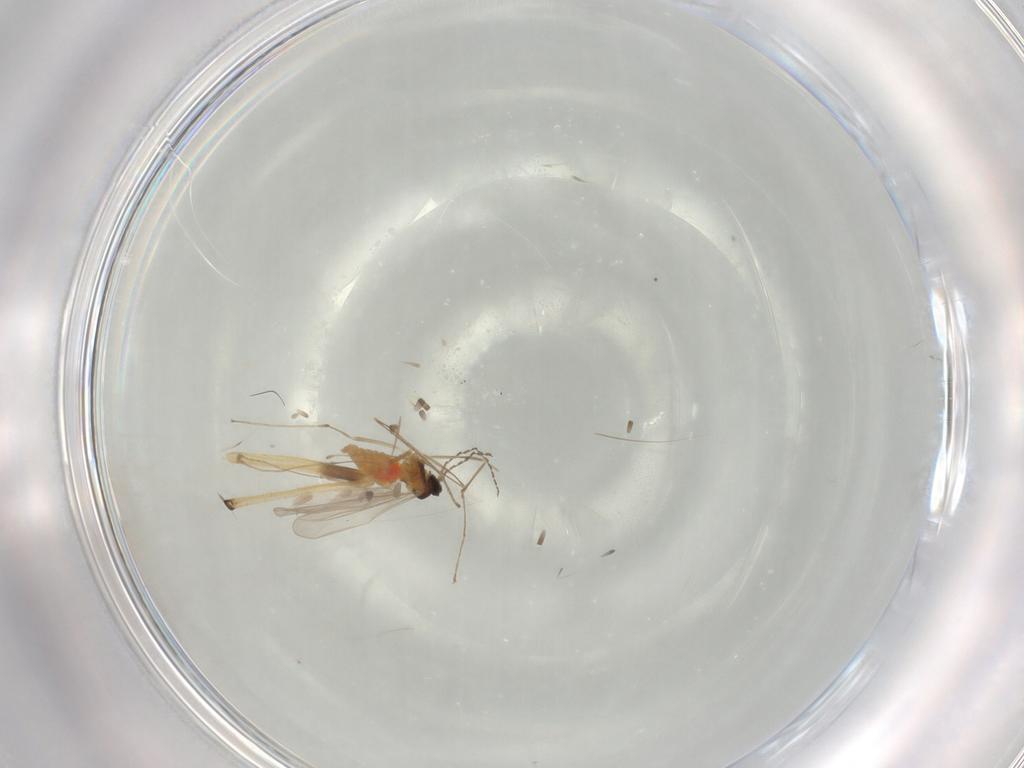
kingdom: Animalia
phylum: Arthropoda
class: Insecta
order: Diptera
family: Cecidomyiidae
